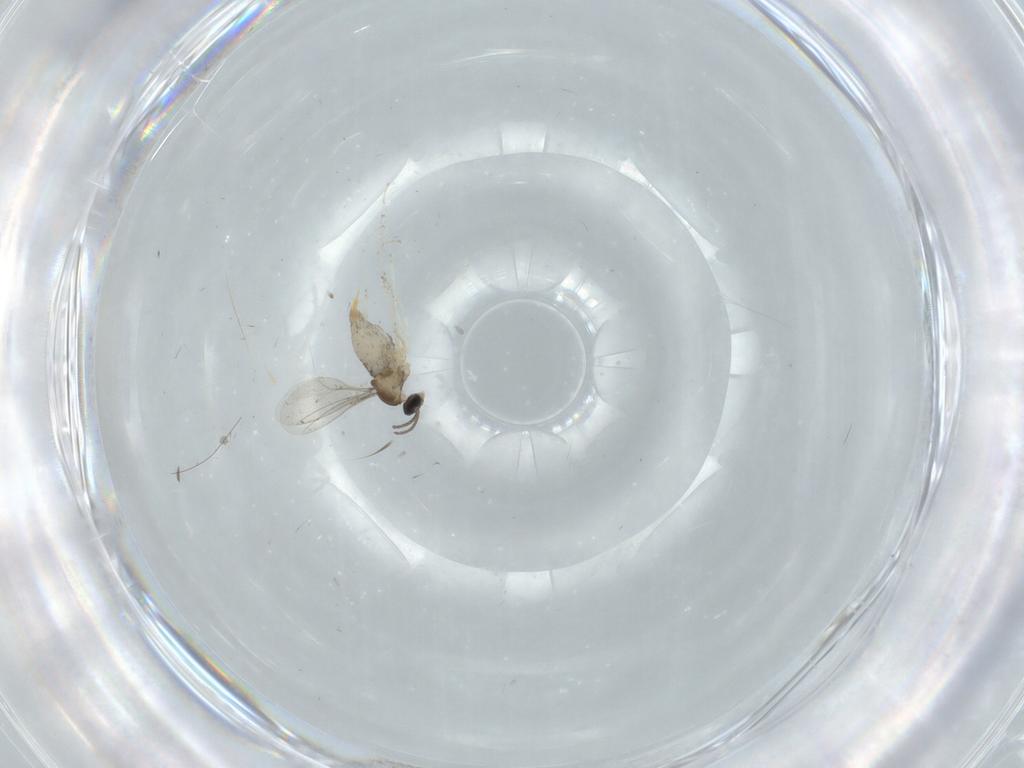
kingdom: Animalia
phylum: Arthropoda
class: Insecta
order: Diptera
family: Cecidomyiidae
